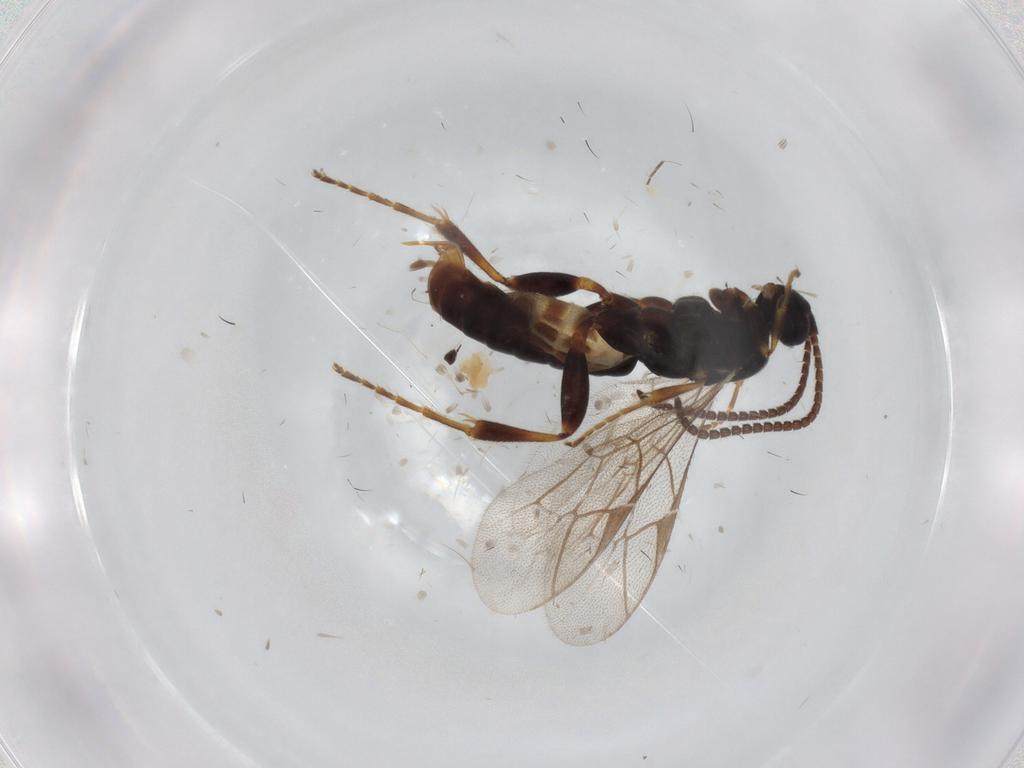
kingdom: Animalia
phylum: Arthropoda
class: Insecta
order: Hymenoptera
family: Ichneumonidae
